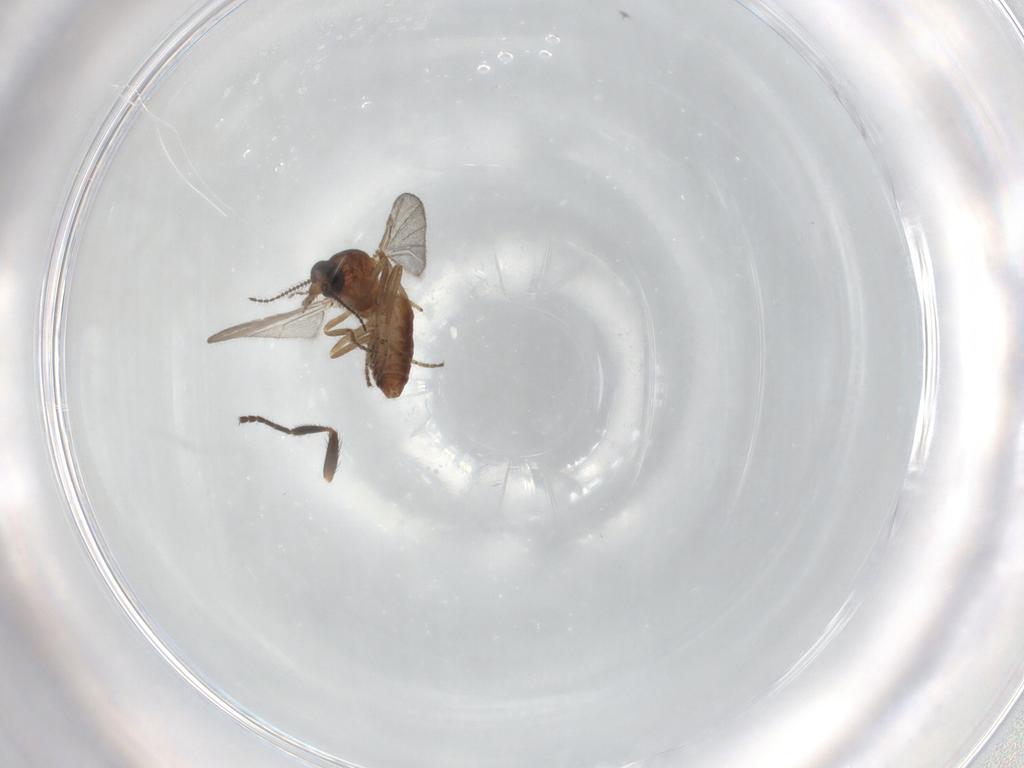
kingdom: Animalia
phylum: Arthropoda
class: Insecta
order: Diptera
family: Ceratopogonidae
